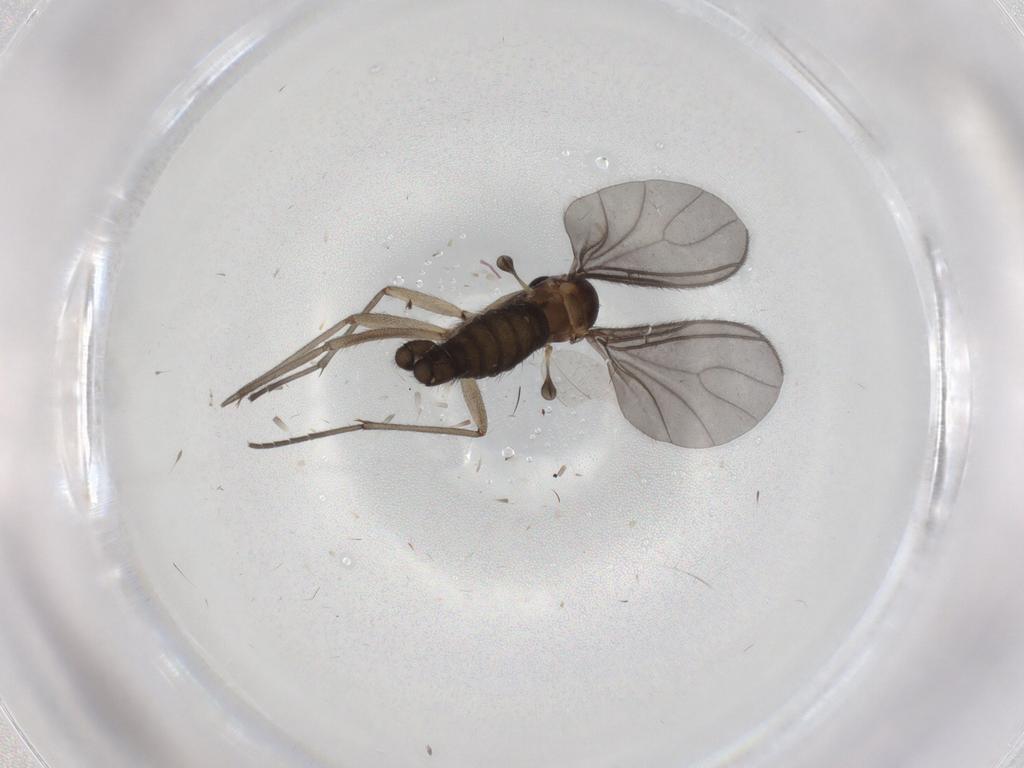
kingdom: Animalia
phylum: Arthropoda
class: Insecta
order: Diptera
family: Sciaridae
